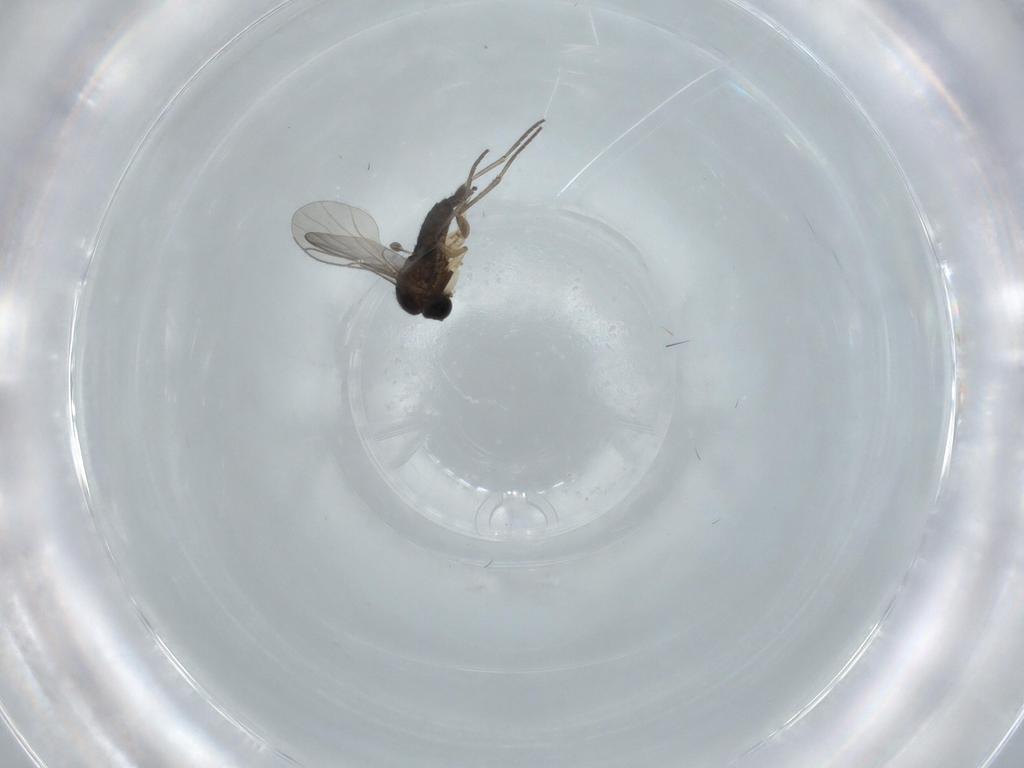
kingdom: Animalia
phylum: Arthropoda
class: Insecta
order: Diptera
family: Sciaridae
